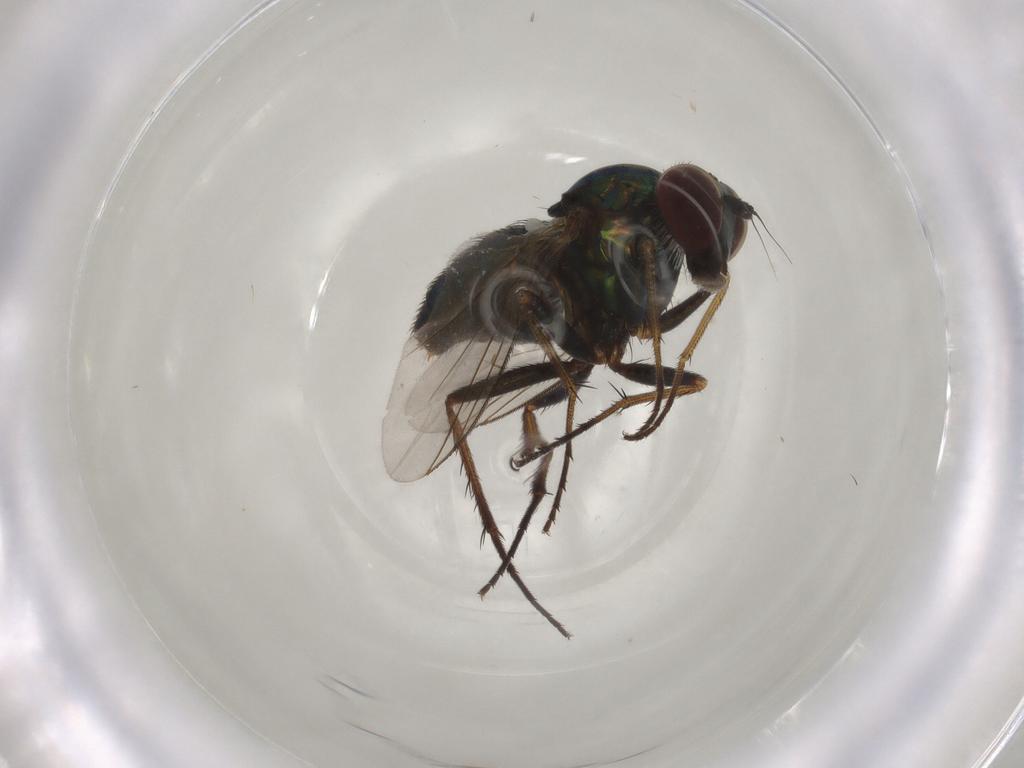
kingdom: Animalia
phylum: Arthropoda
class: Insecta
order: Diptera
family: Dolichopodidae
